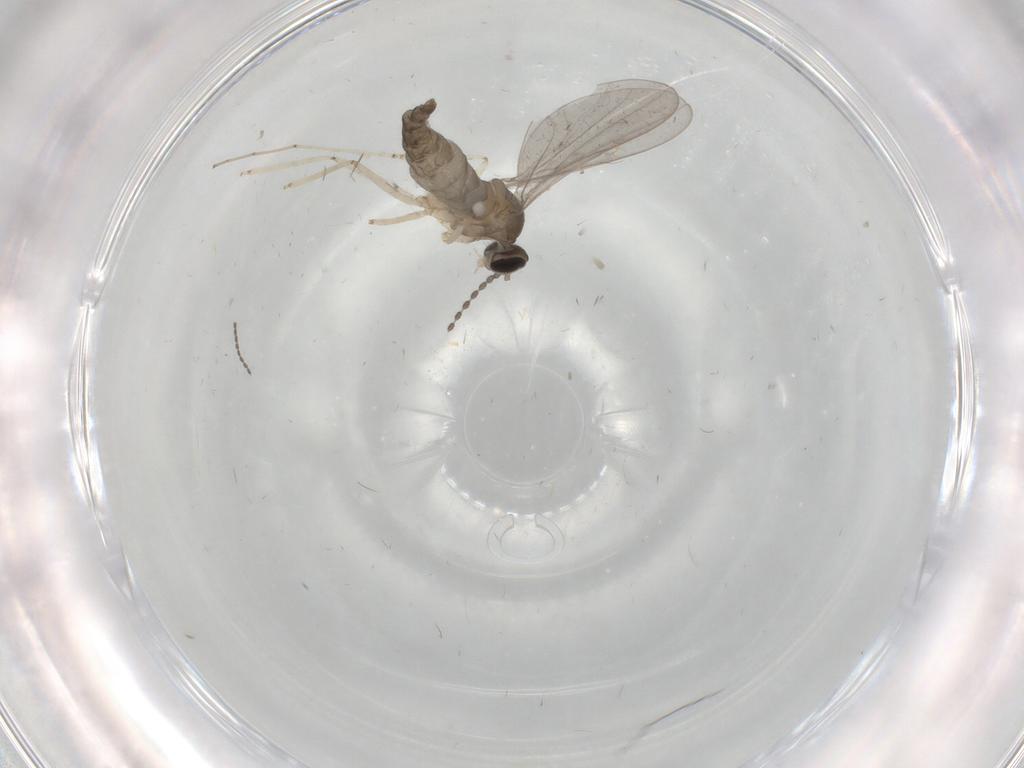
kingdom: Animalia
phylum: Arthropoda
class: Insecta
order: Diptera
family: Cecidomyiidae
